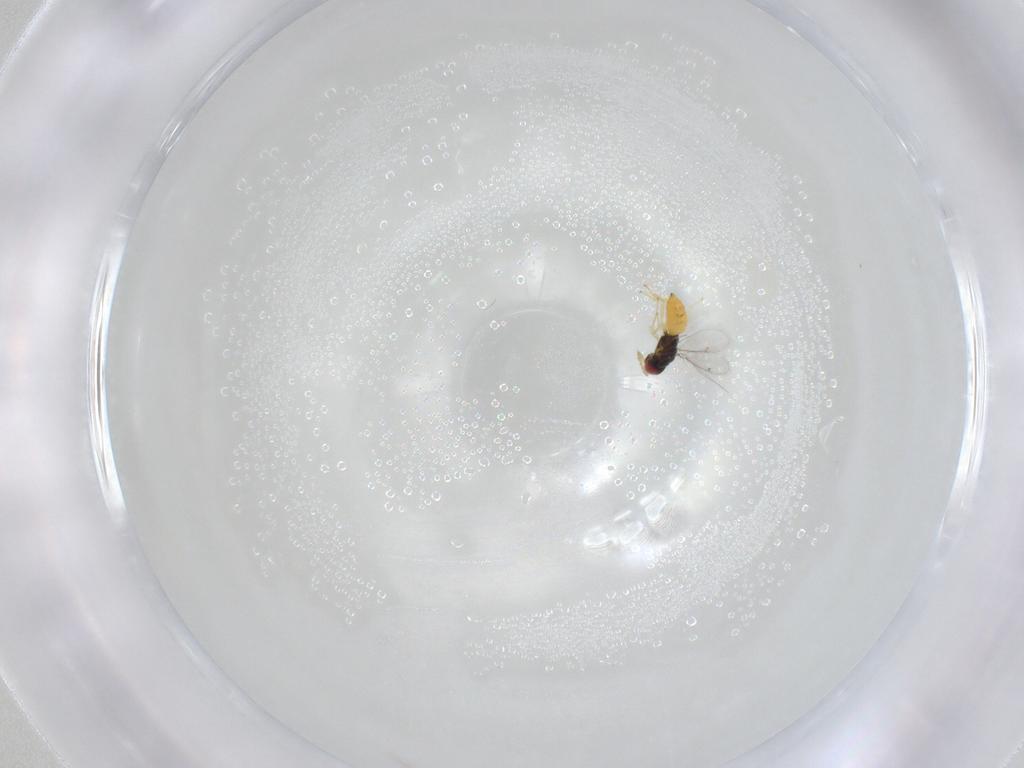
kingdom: Animalia
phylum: Arthropoda
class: Insecta
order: Hymenoptera
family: Eulophidae
